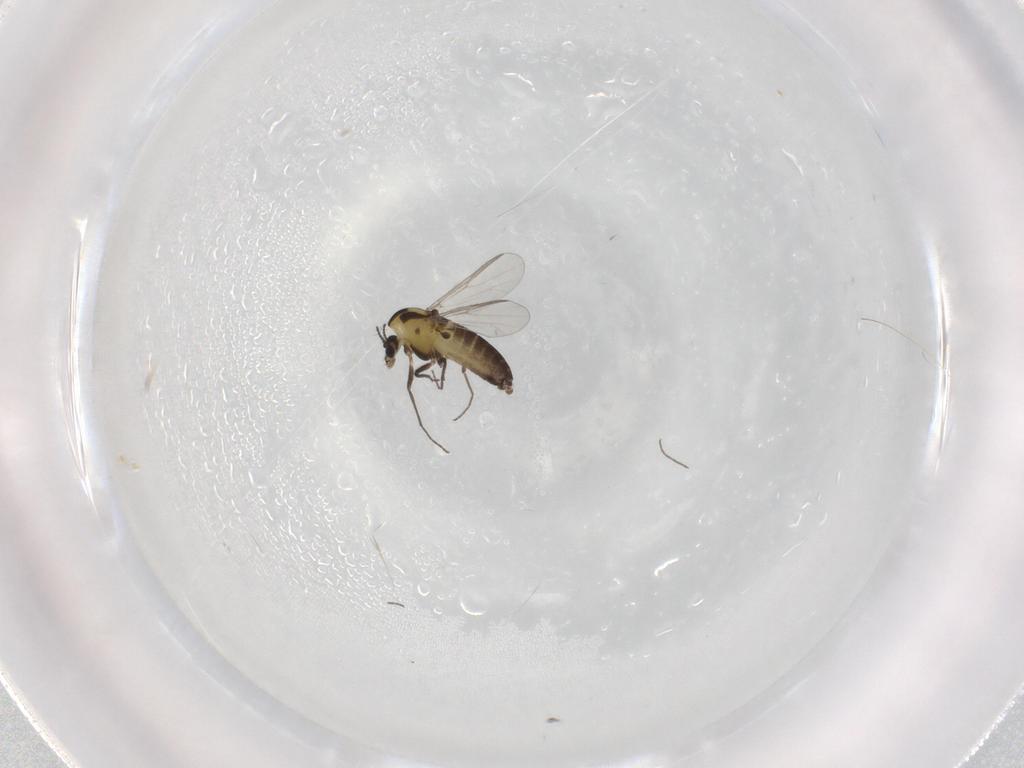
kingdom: Animalia
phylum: Arthropoda
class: Insecta
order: Diptera
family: Chironomidae
